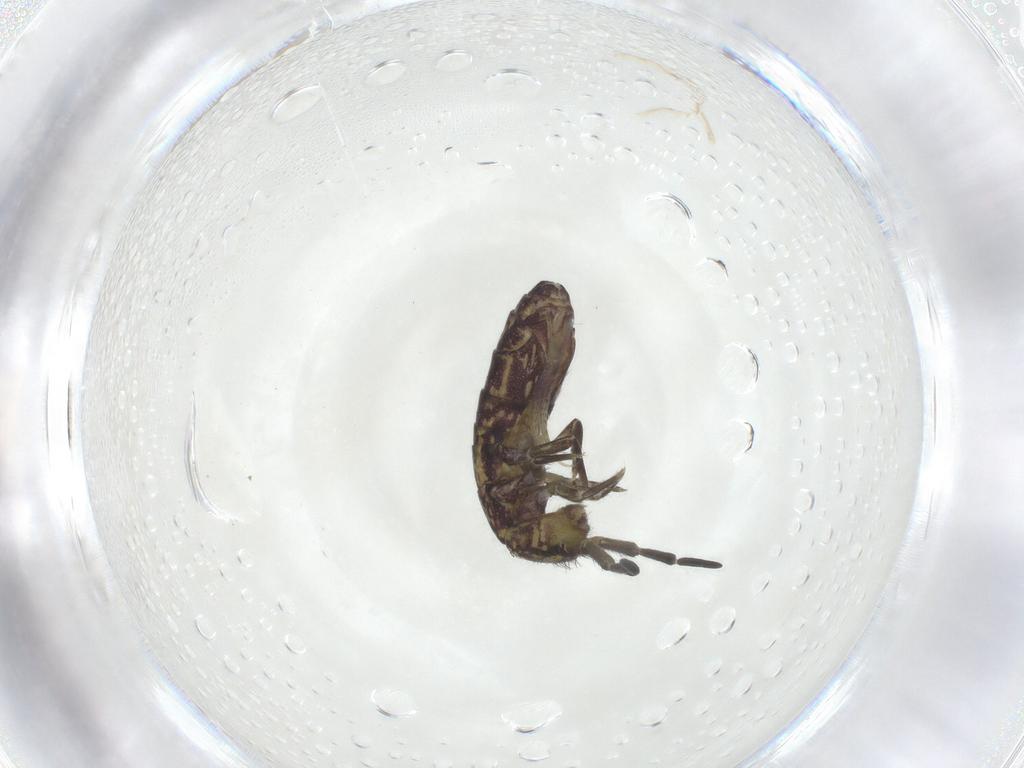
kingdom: Animalia
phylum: Arthropoda
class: Collembola
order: Entomobryomorpha
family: Isotomidae
